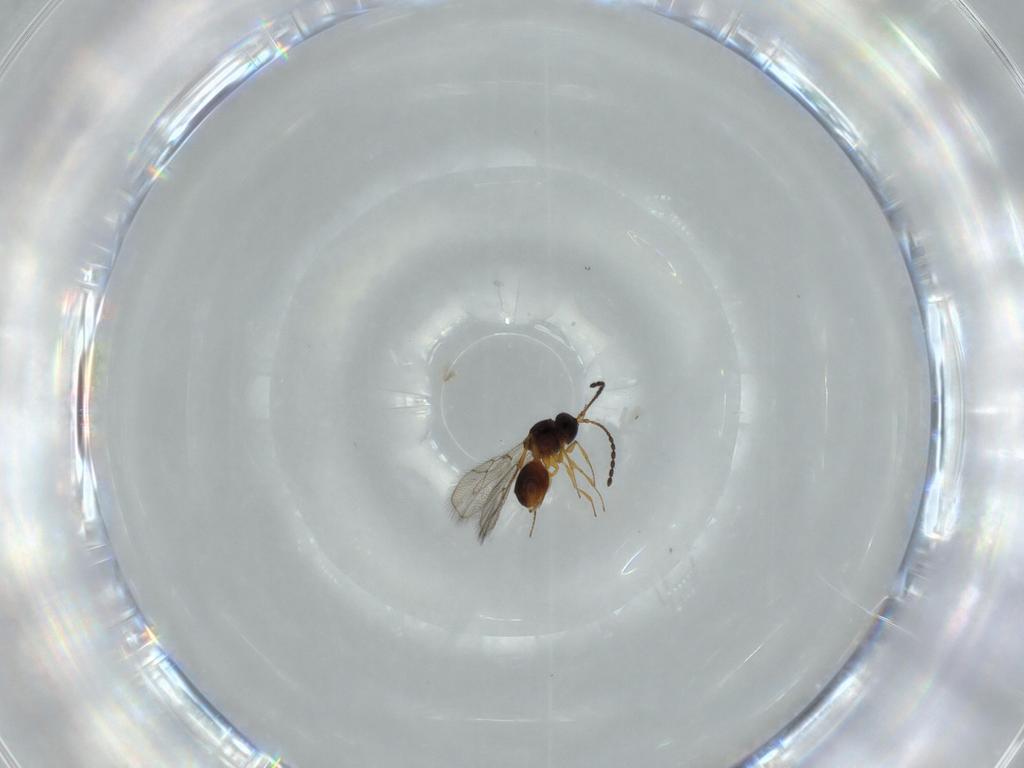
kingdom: Animalia
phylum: Arthropoda
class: Insecta
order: Hymenoptera
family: Figitidae
